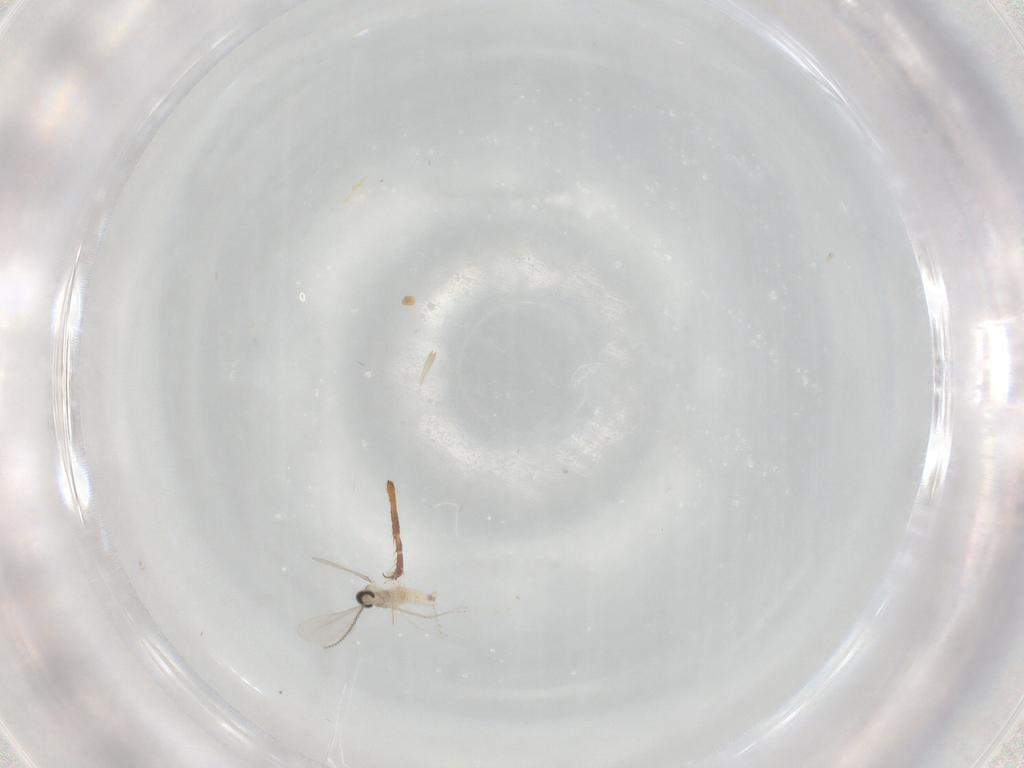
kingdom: Animalia
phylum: Arthropoda
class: Insecta
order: Diptera
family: Cecidomyiidae
